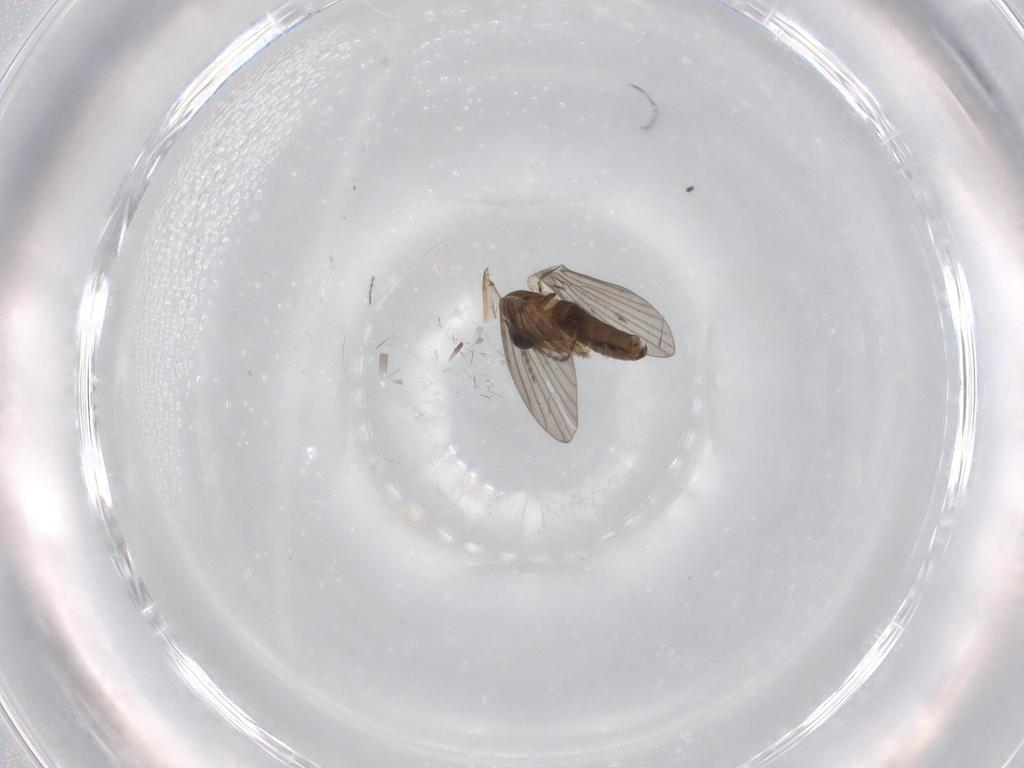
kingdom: Animalia
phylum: Arthropoda
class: Insecta
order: Diptera
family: Psychodidae
